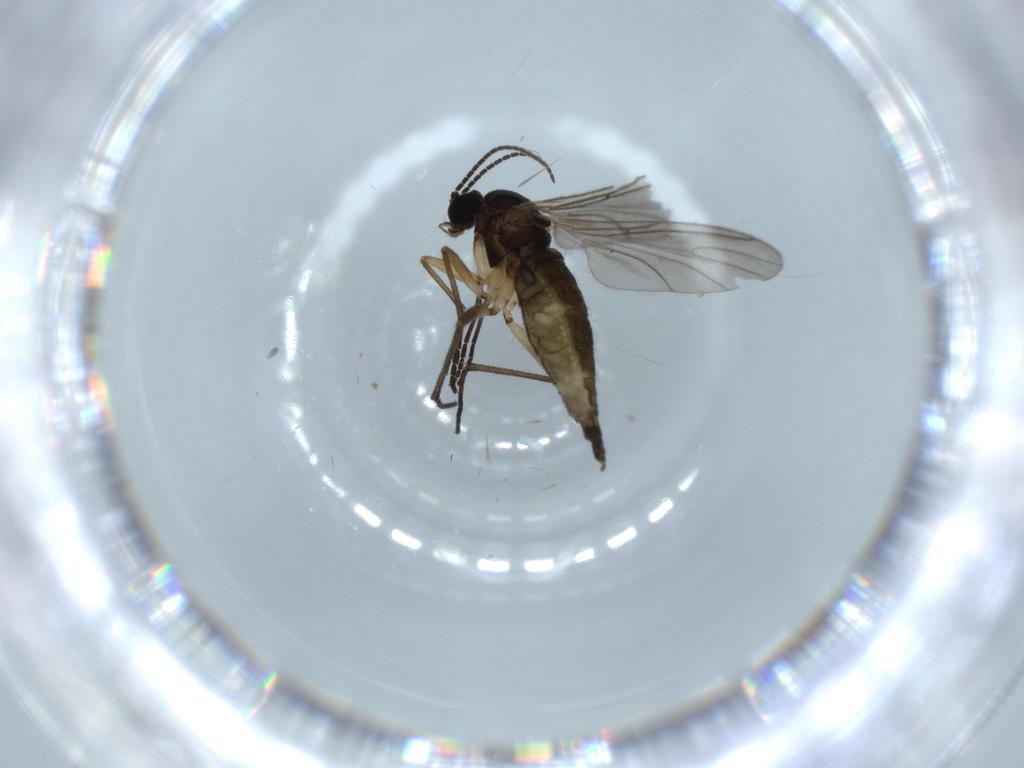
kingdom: Animalia
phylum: Arthropoda
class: Insecta
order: Diptera
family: Sciaridae
